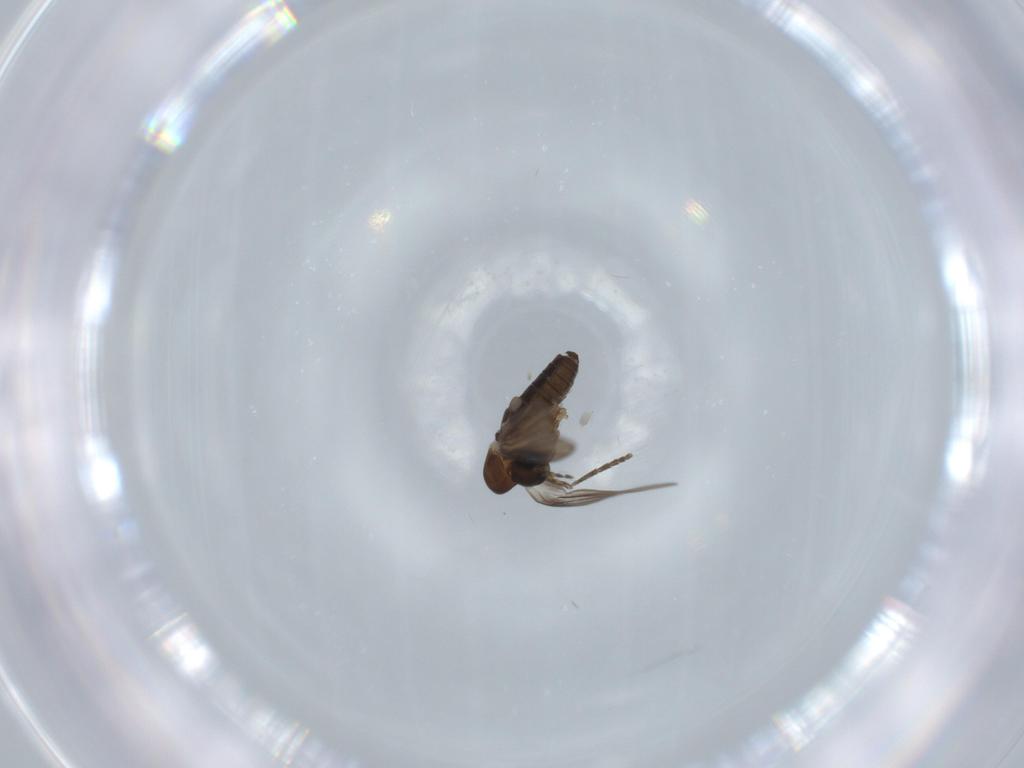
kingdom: Animalia
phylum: Arthropoda
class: Insecta
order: Diptera
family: Psychodidae
